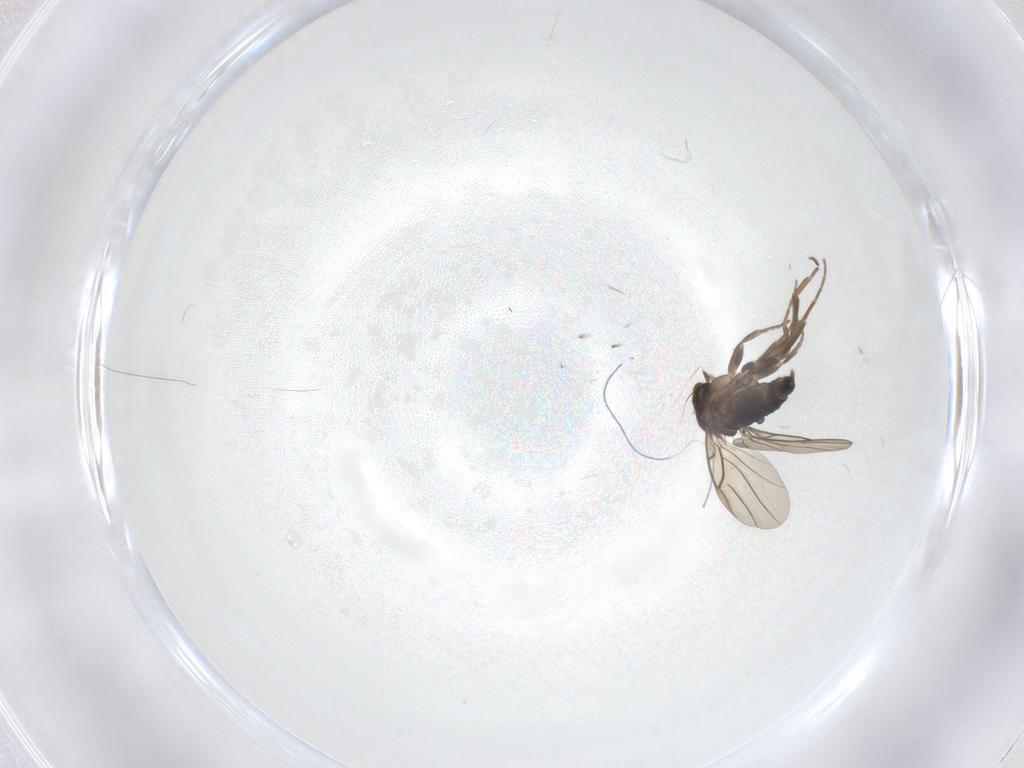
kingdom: Animalia
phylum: Arthropoda
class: Insecta
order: Diptera
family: Phoridae
